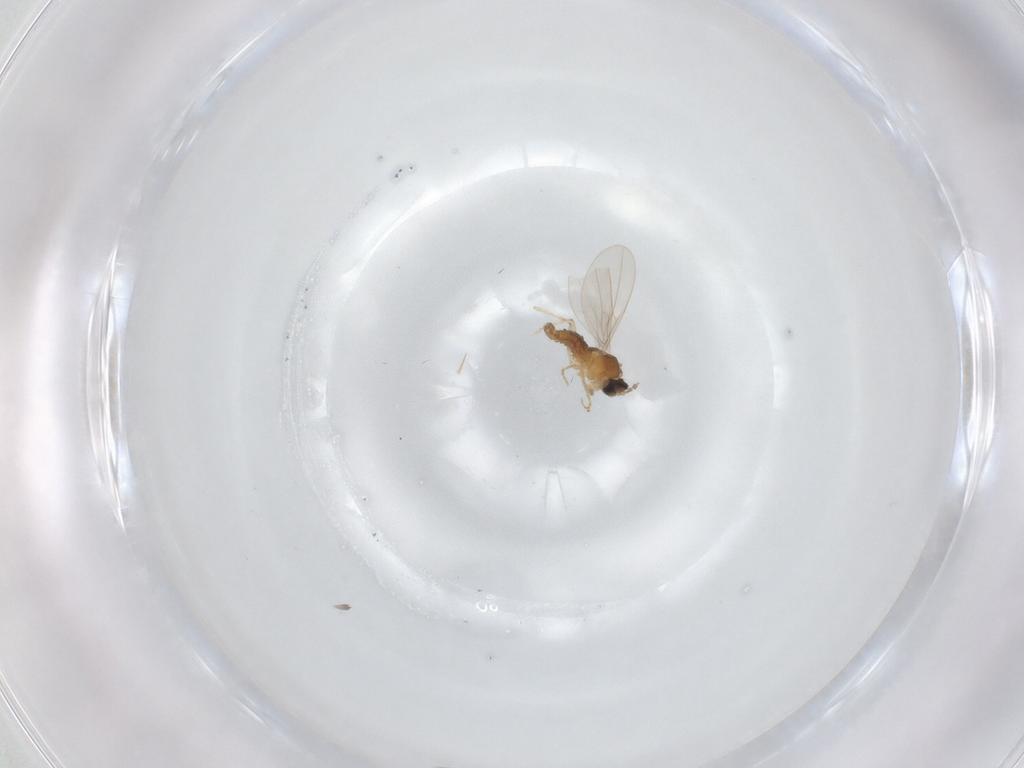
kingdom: Animalia
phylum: Arthropoda
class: Insecta
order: Diptera
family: Cecidomyiidae
